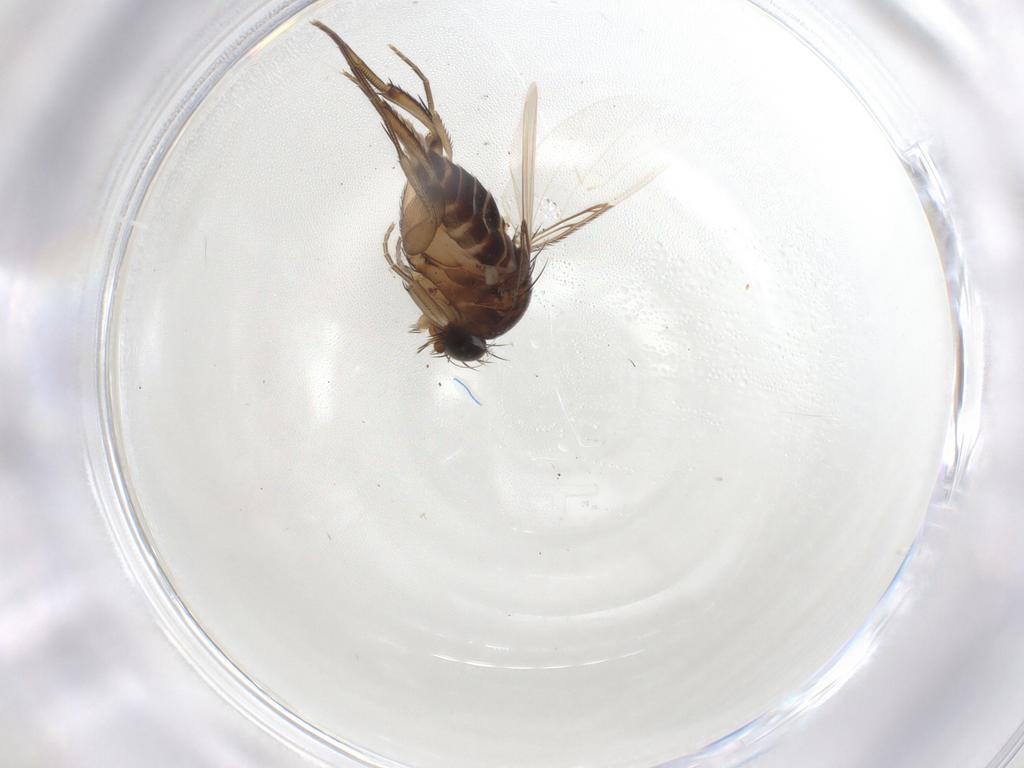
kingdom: Animalia
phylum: Arthropoda
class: Insecta
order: Diptera
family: Phoridae
